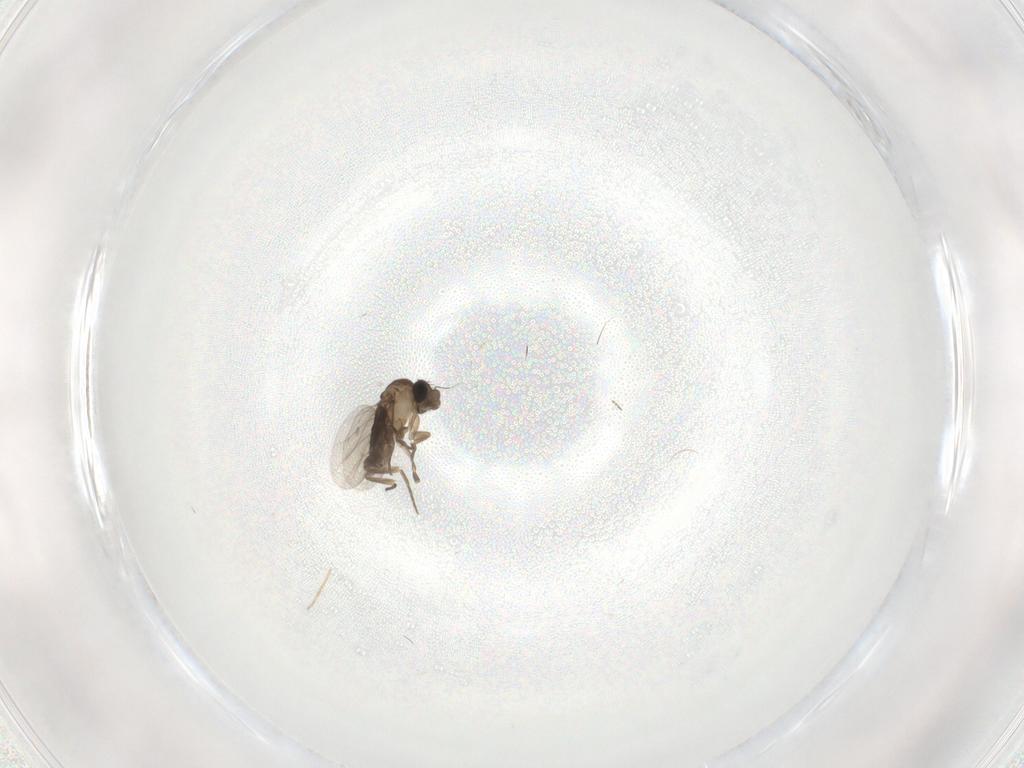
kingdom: Animalia
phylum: Arthropoda
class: Insecta
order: Diptera
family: Chironomidae
